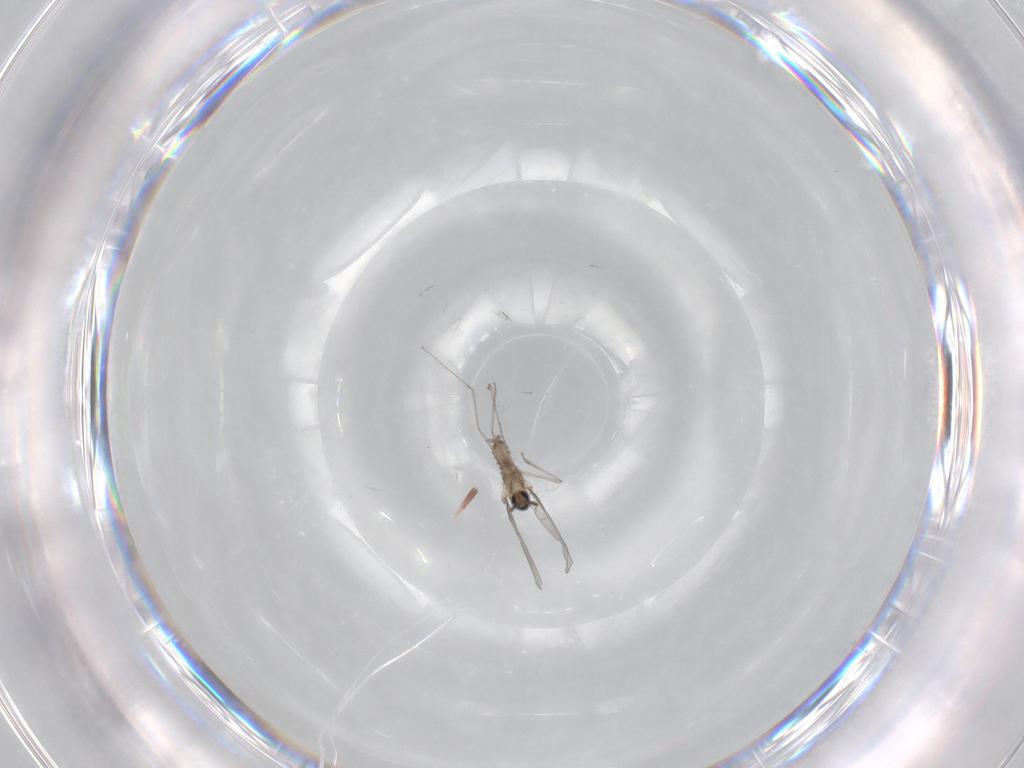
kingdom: Animalia
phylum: Arthropoda
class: Insecta
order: Diptera
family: Cecidomyiidae
